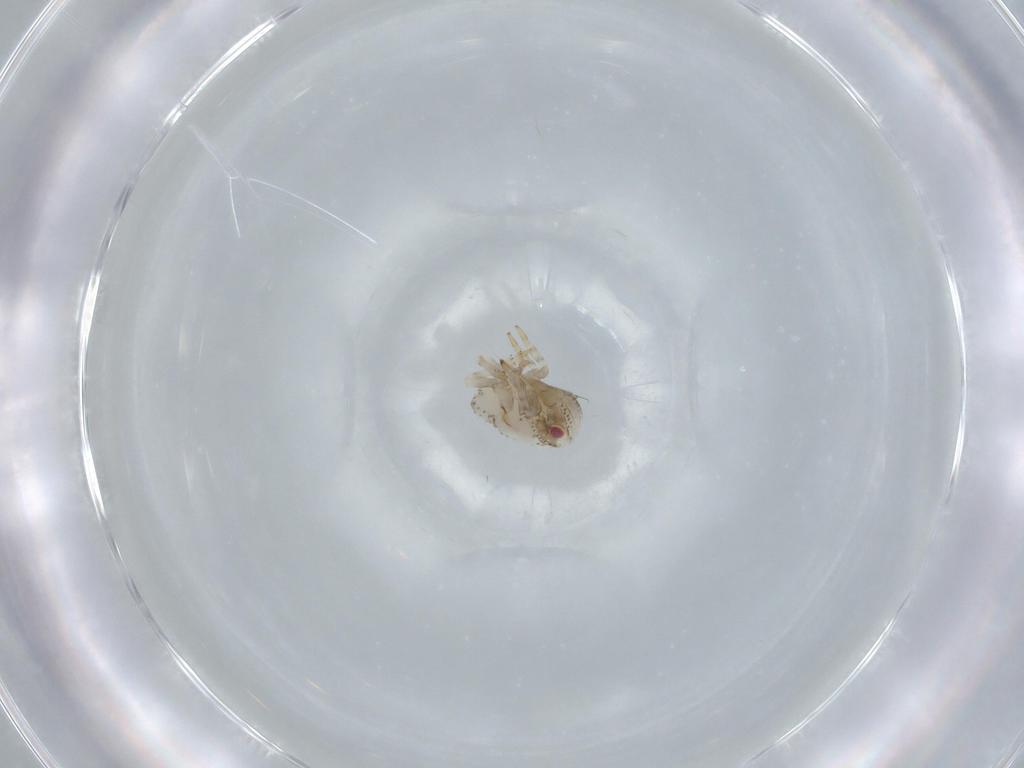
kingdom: Animalia
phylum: Arthropoda
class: Insecta
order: Hemiptera
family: Acanaloniidae
